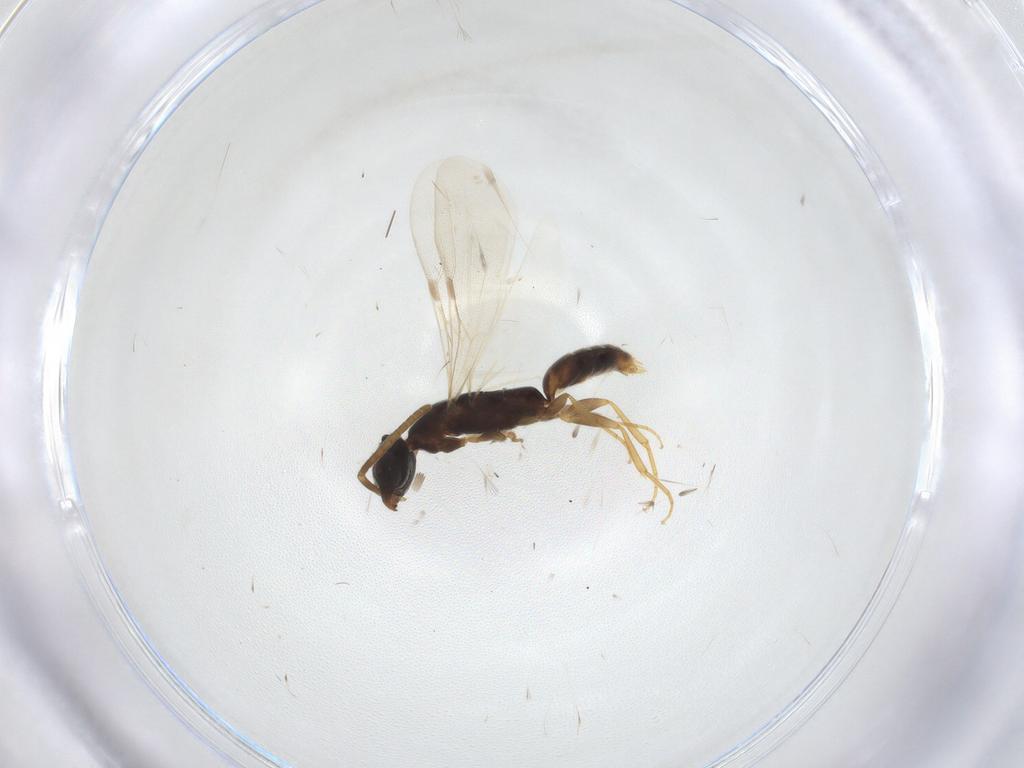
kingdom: Animalia
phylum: Arthropoda
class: Insecta
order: Hymenoptera
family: Bethylidae
